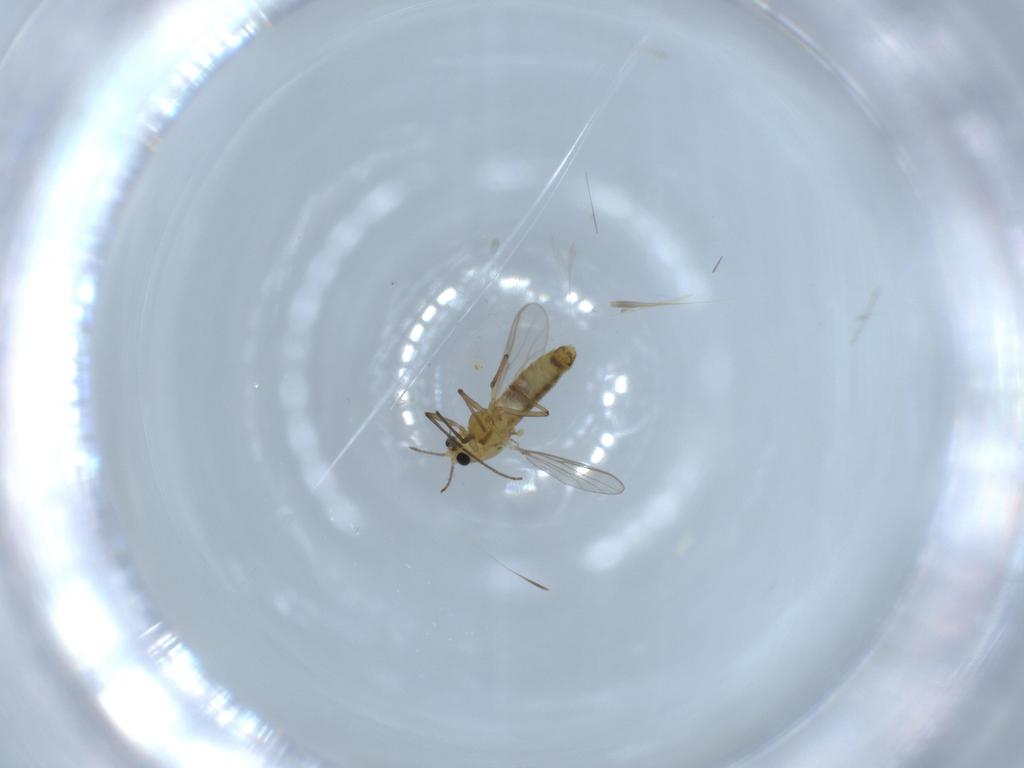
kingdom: Animalia
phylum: Arthropoda
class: Insecta
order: Diptera
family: Chironomidae
